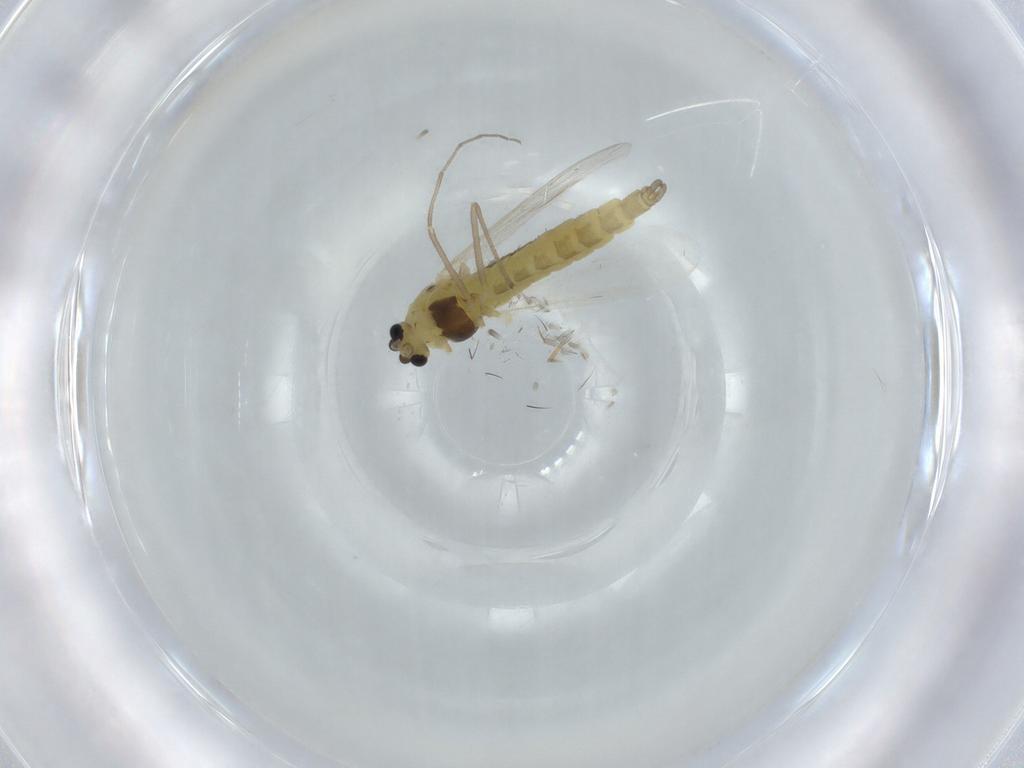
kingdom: Animalia
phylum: Arthropoda
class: Insecta
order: Diptera
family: Chironomidae
